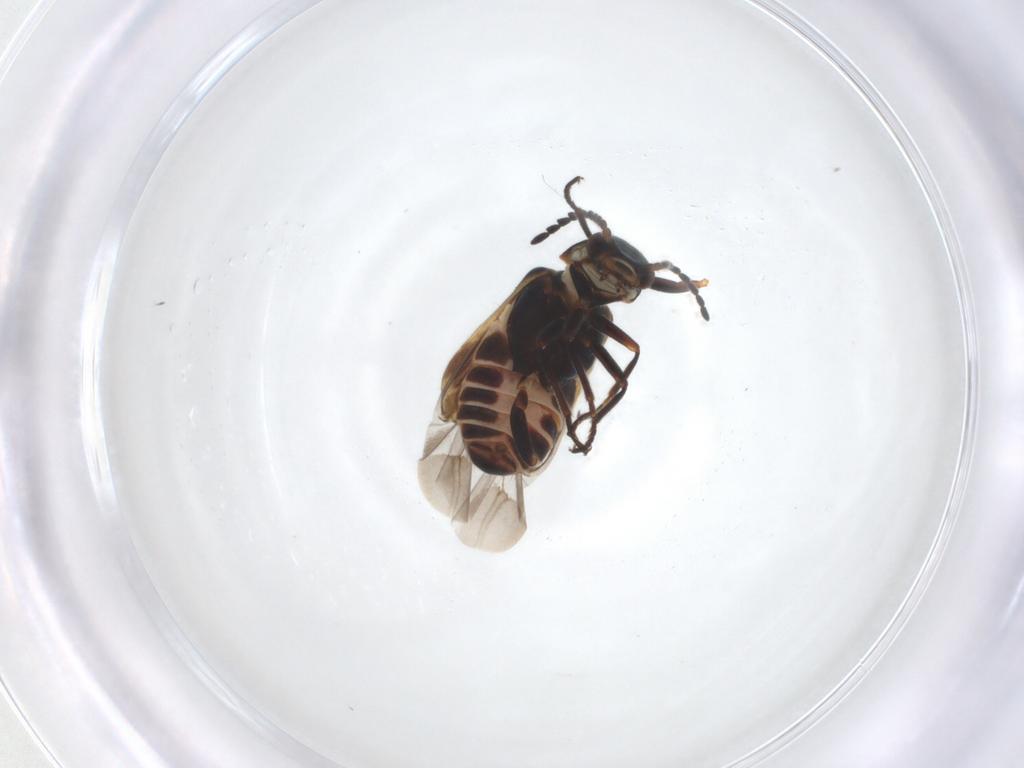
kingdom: Animalia
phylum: Arthropoda
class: Insecta
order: Coleoptera
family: Melyridae
